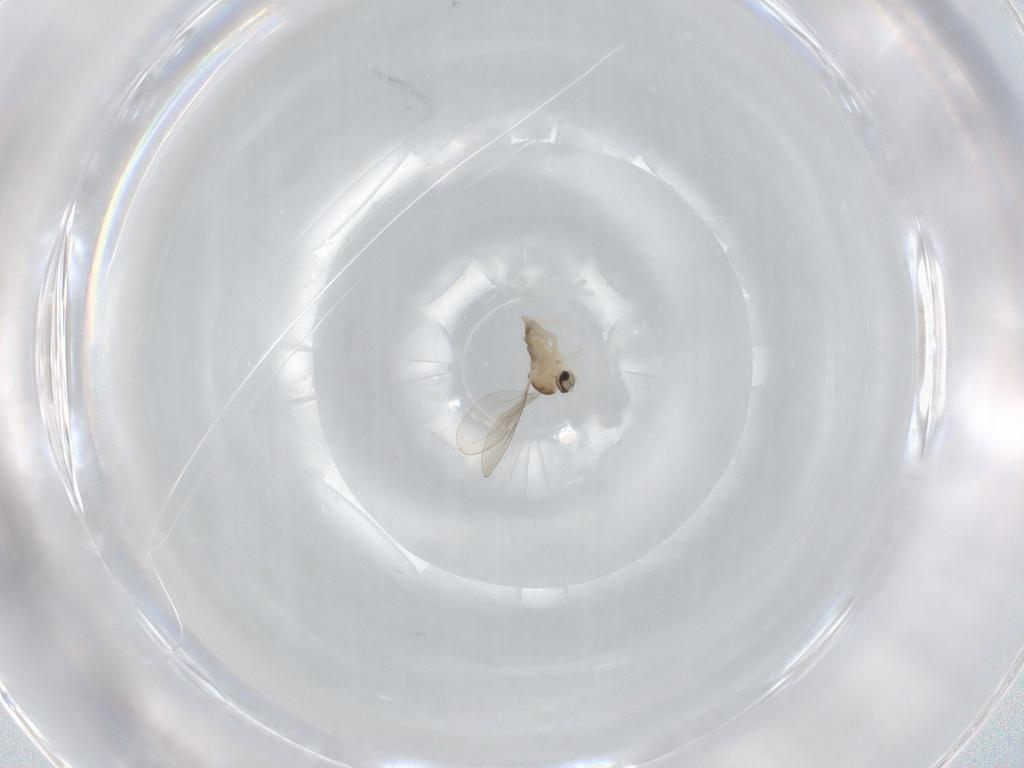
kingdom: Animalia
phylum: Arthropoda
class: Insecta
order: Diptera
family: Cecidomyiidae
